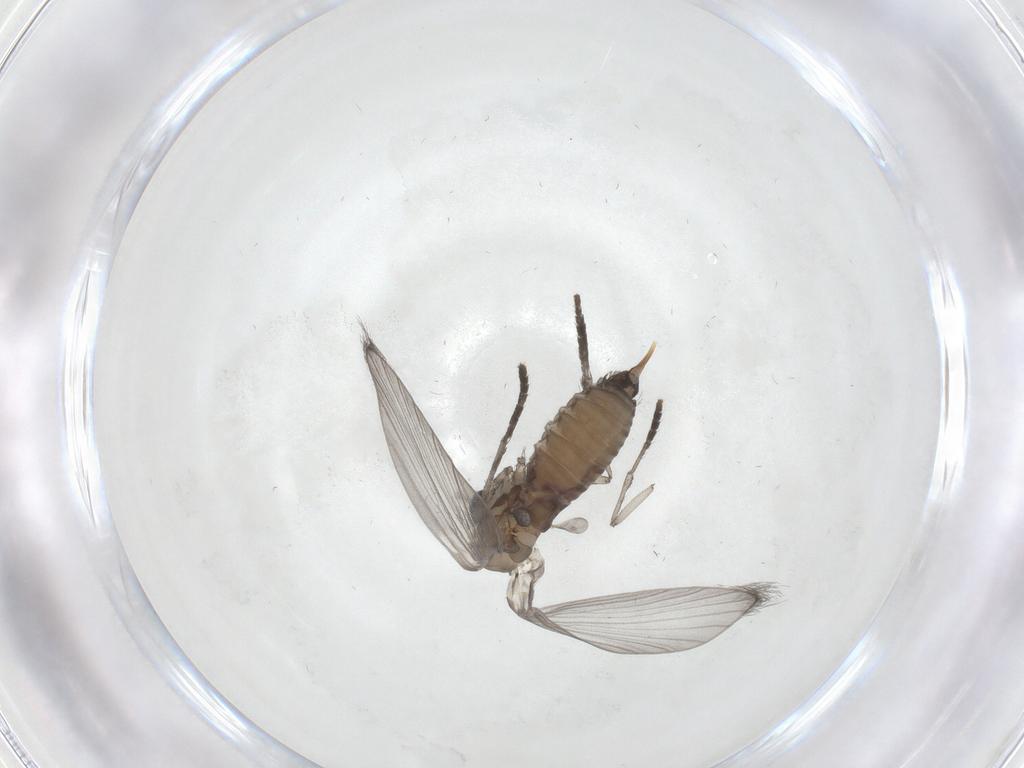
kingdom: Animalia
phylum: Arthropoda
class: Insecta
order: Diptera
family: Psychodidae
